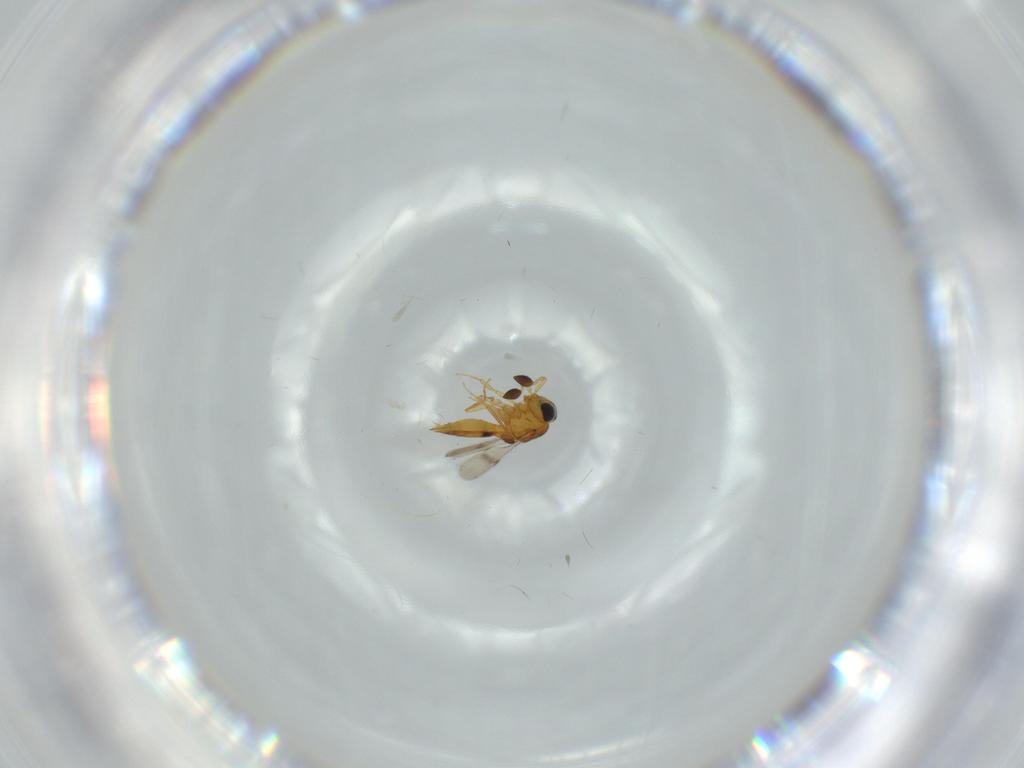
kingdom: Animalia
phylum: Arthropoda
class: Insecta
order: Hymenoptera
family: Scelionidae
